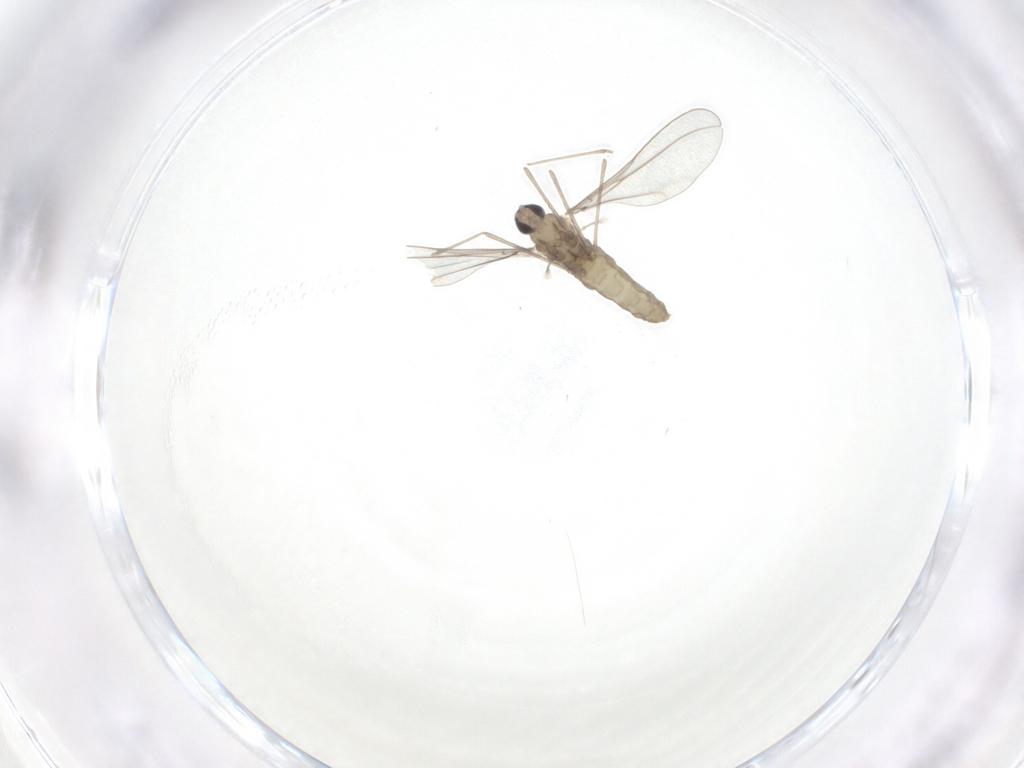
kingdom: Animalia
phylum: Arthropoda
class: Insecta
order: Diptera
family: Cecidomyiidae
